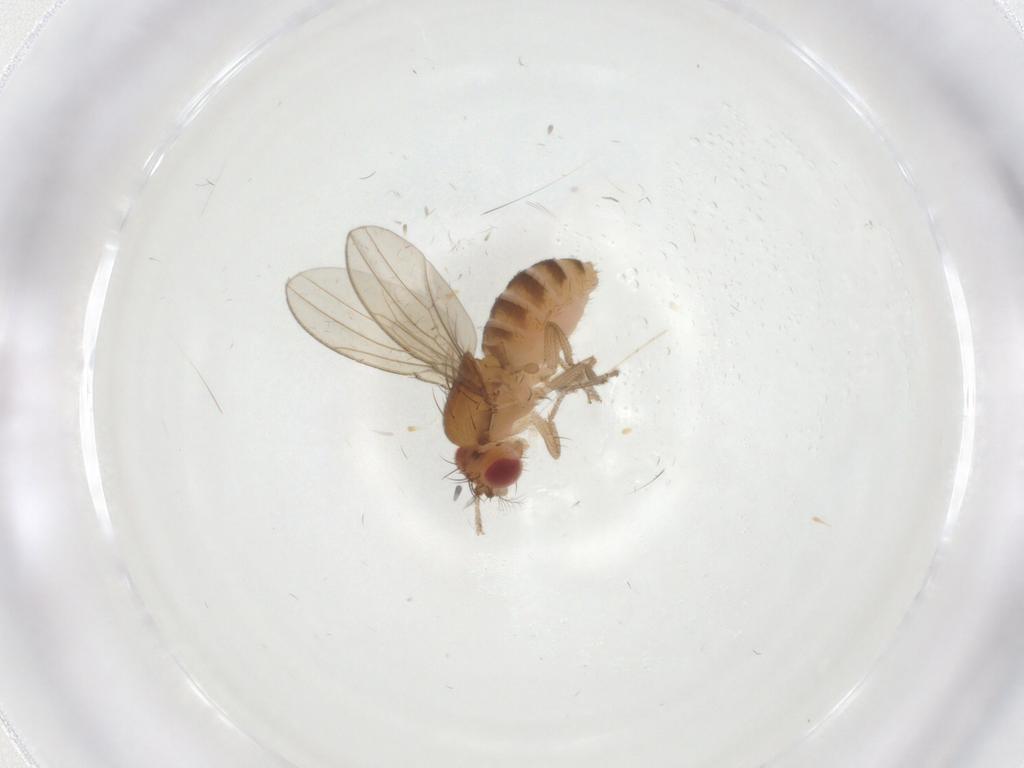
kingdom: Animalia
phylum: Arthropoda
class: Insecta
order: Diptera
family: Drosophilidae
